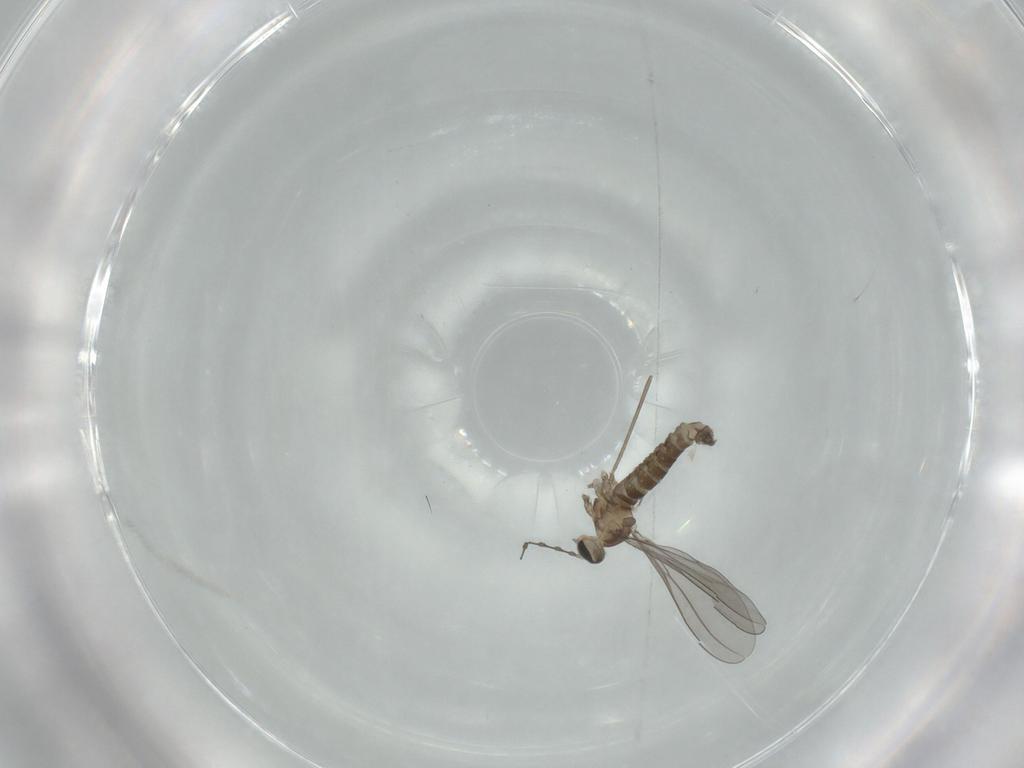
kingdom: Animalia
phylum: Arthropoda
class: Insecta
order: Diptera
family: Cecidomyiidae
